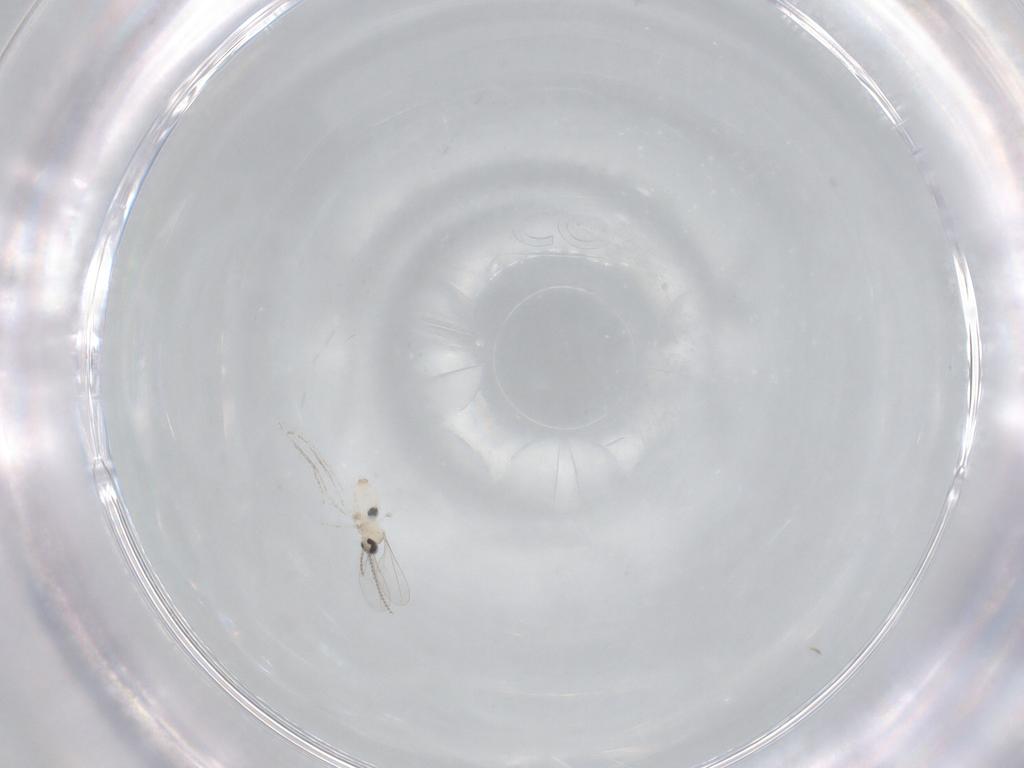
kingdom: Animalia
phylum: Arthropoda
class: Insecta
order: Diptera
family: Cecidomyiidae
